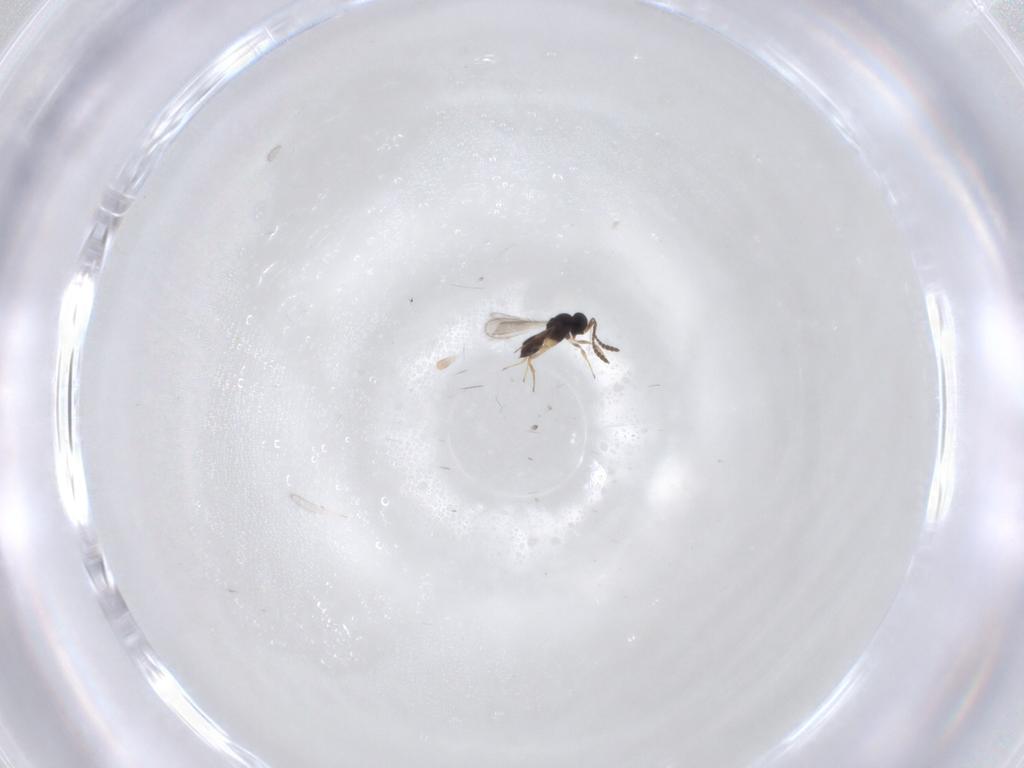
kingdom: Animalia
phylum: Arthropoda
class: Insecta
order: Hymenoptera
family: Scelionidae
